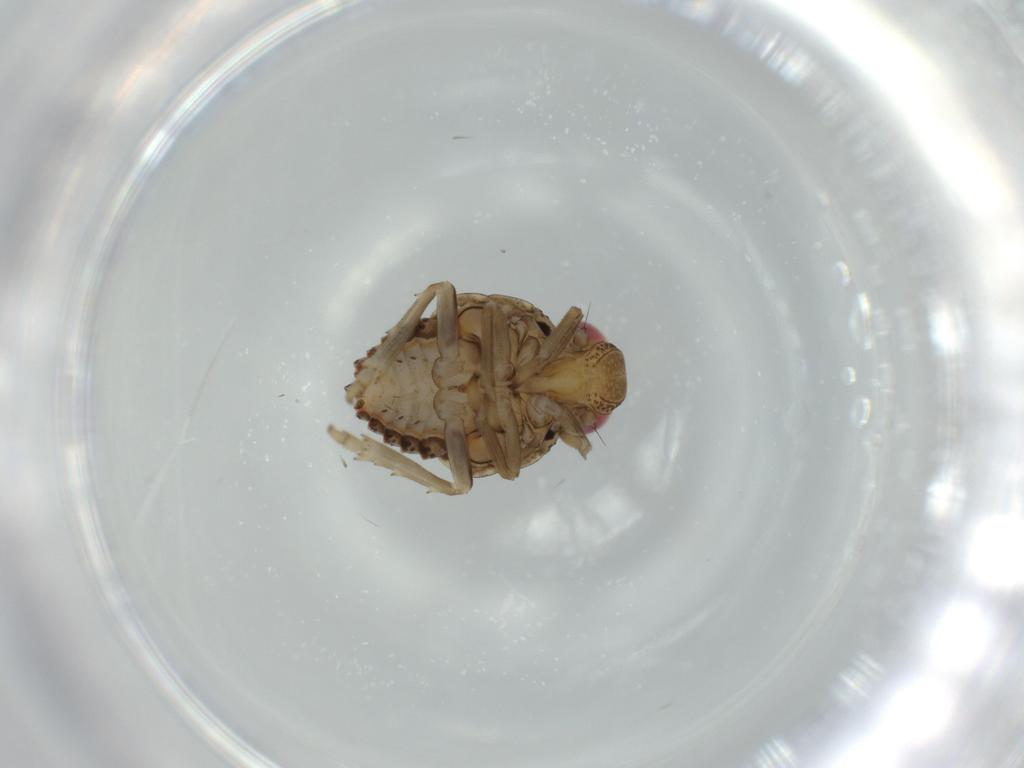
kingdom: Animalia
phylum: Arthropoda
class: Insecta
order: Hemiptera
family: Issidae
